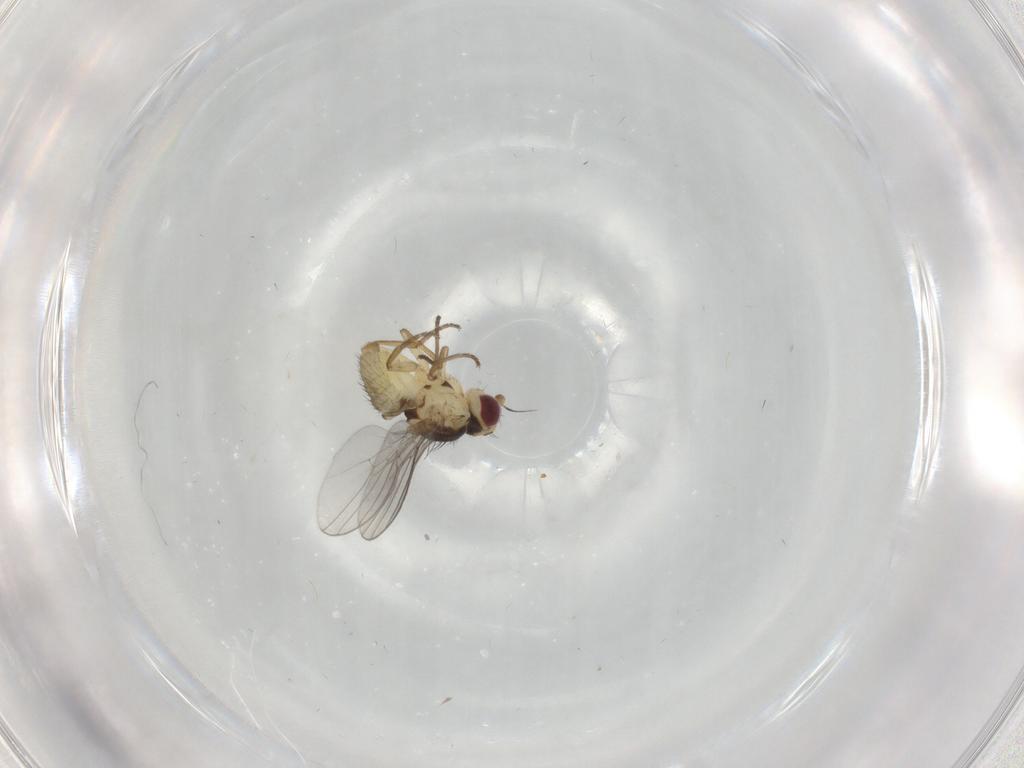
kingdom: Animalia
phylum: Arthropoda
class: Insecta
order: Diptera
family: Agromyzidae
